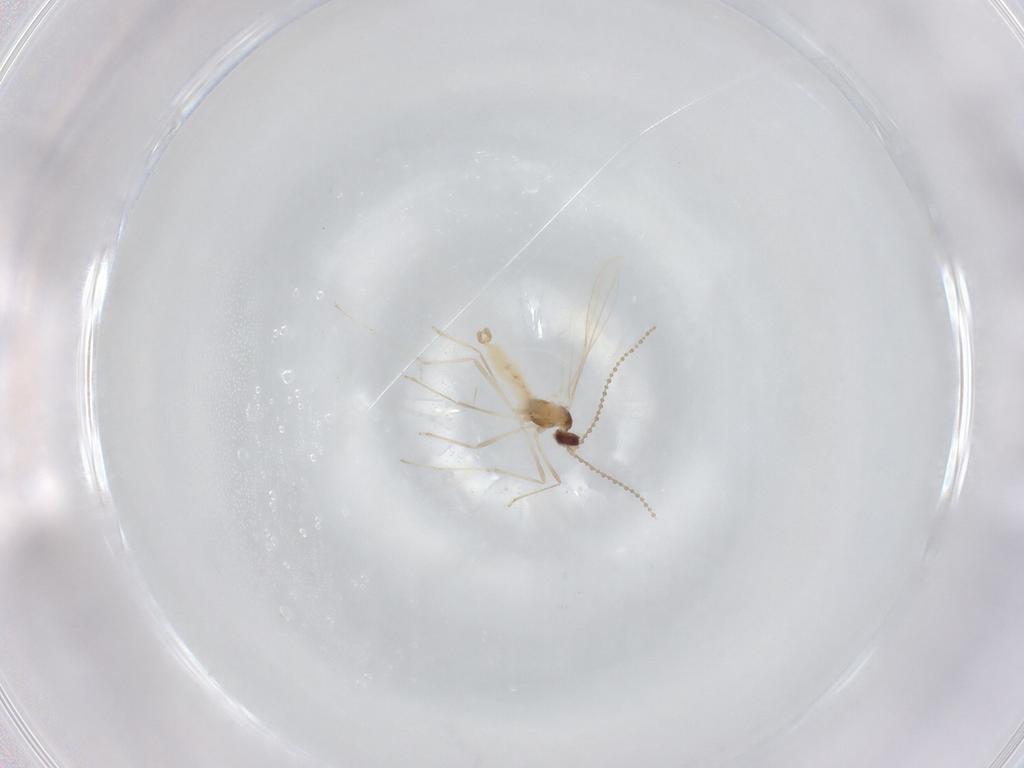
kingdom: Animalia
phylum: Arthropoda
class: Insecta
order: Diptera
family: Cecidomyiidae
